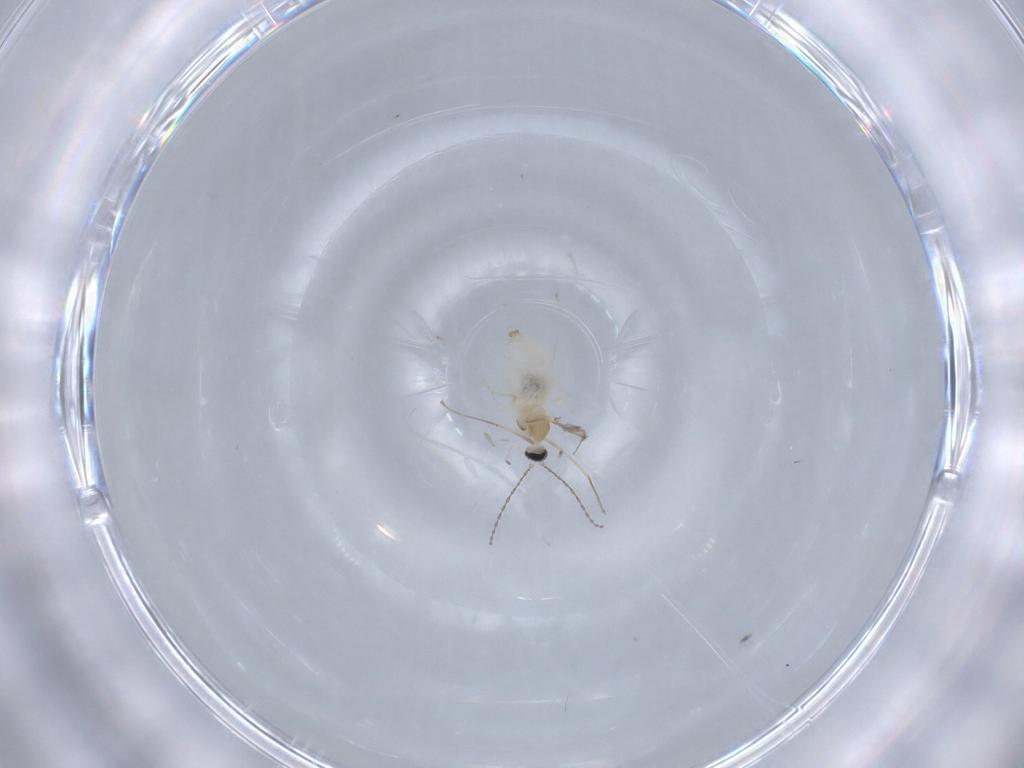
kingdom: Animalia
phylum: Arthropoda
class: Insecta
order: Diptera
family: Cecidomyiidae
